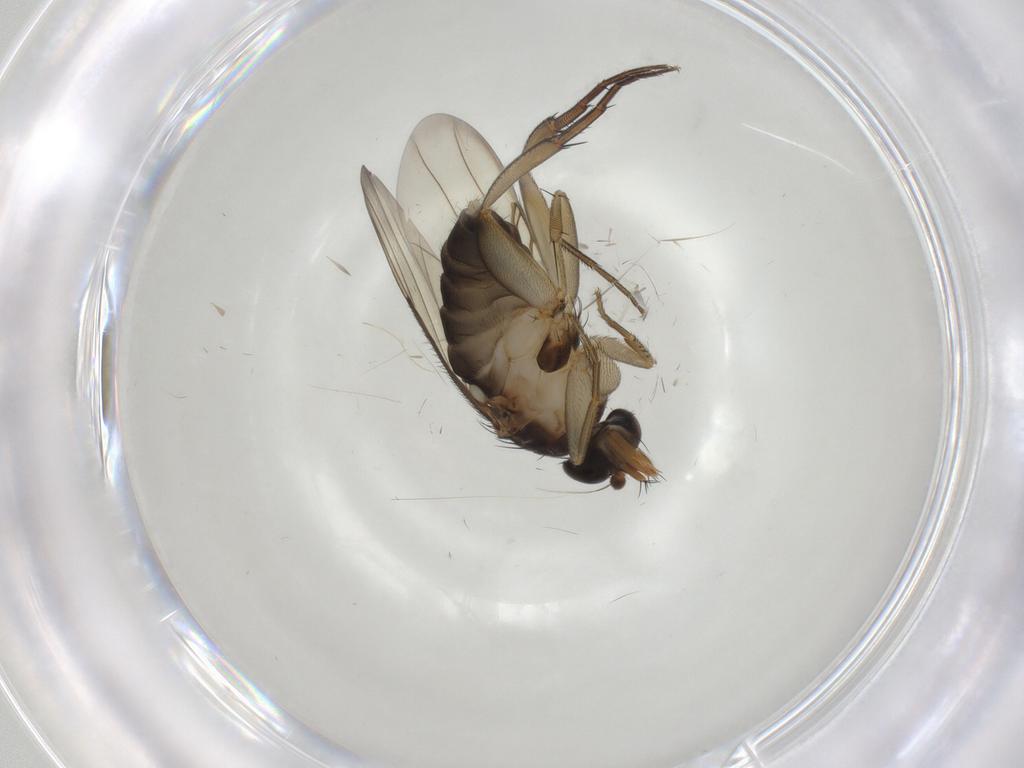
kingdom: Animalia
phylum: Arthropoda
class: Insecta
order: Diptera
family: Phoridae
